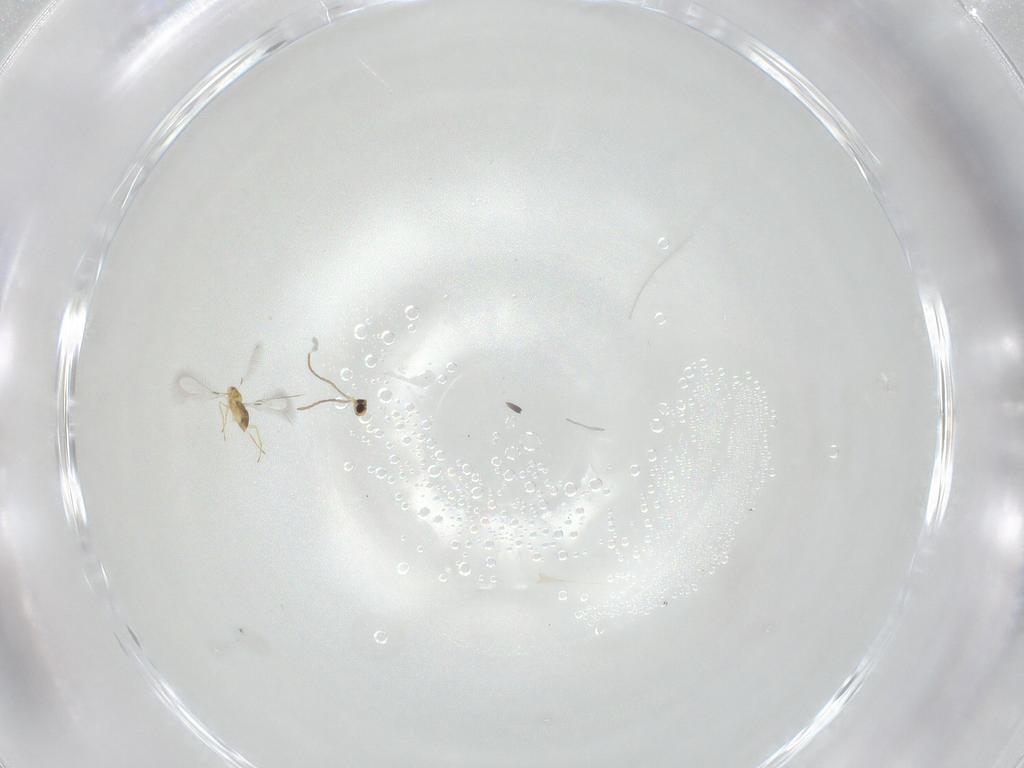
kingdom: Animalia
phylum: Arthropoda
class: Insecta
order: Hymenoptera
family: Mymaridae
